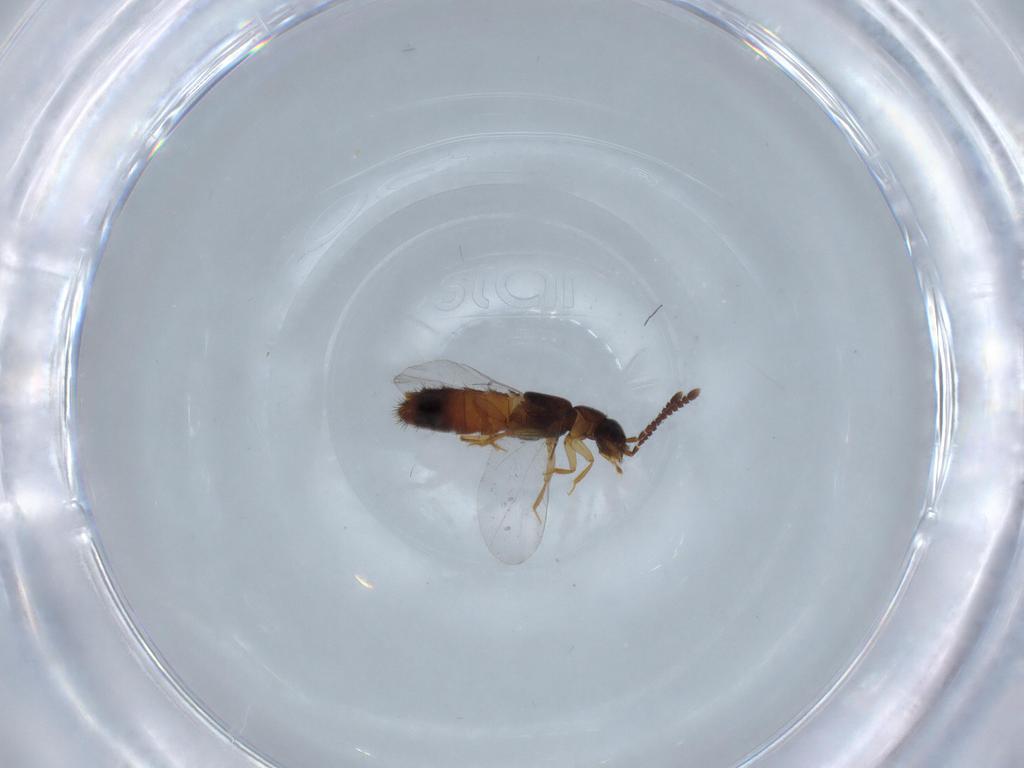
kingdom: Animalia
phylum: Arthropoda
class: Insecta
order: Coleoptera
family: Staphylinidae
